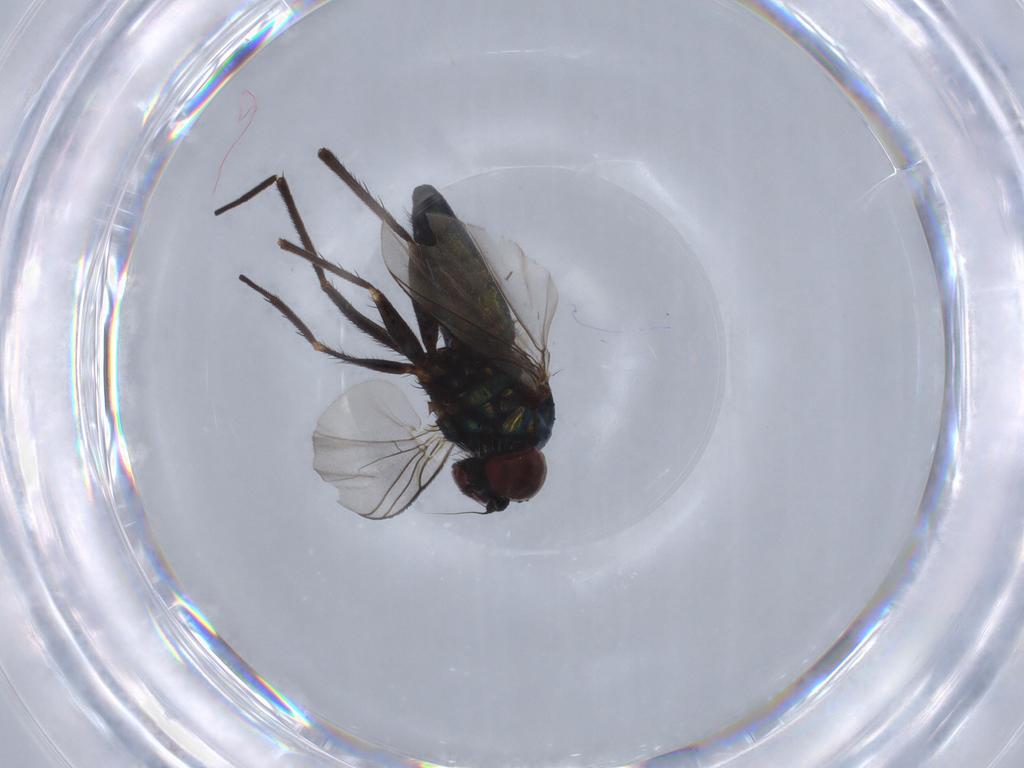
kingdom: Animalia
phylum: Arthropoda
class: Insecta
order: Diptera
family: Dolichopodidae
